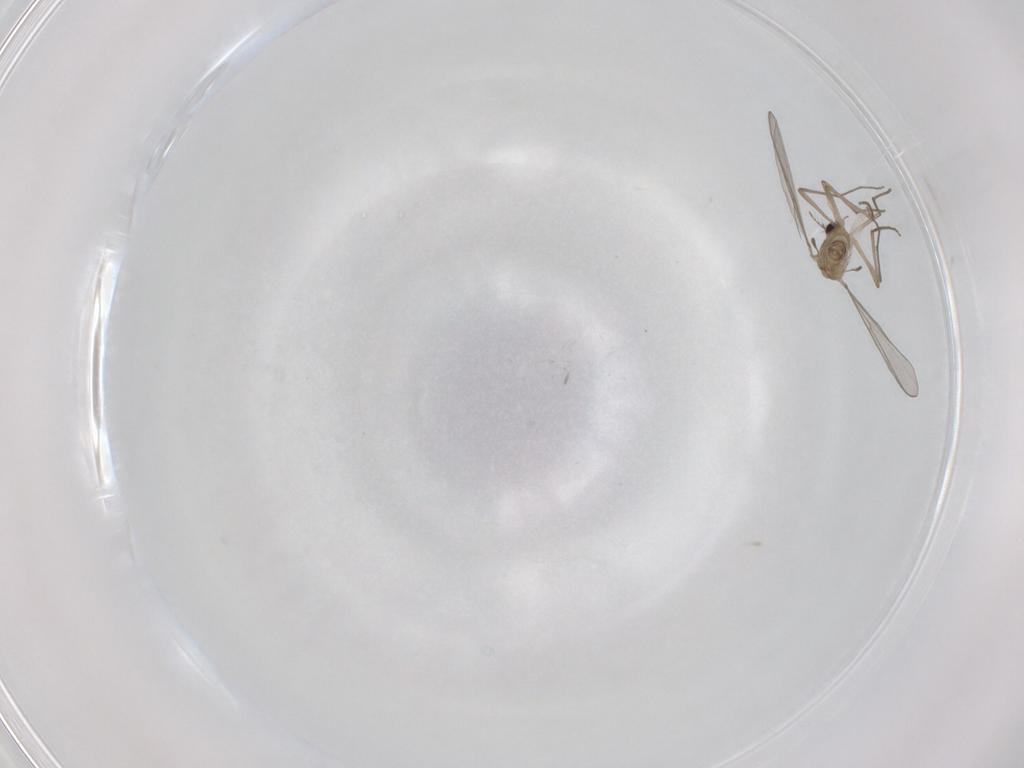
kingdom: Animalia
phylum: Arthropoda
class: Insecta
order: Diptera
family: Chironomidae
